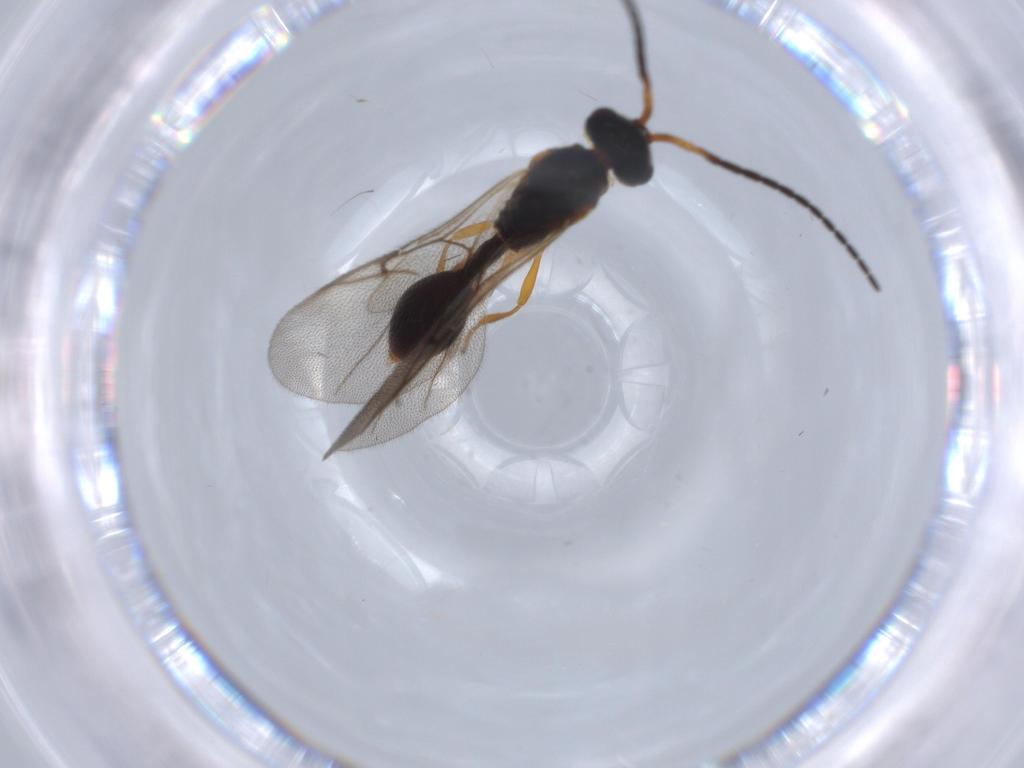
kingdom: Animalia
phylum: Arthropoda
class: Insecta
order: Hymenoptera
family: Diapriidae
